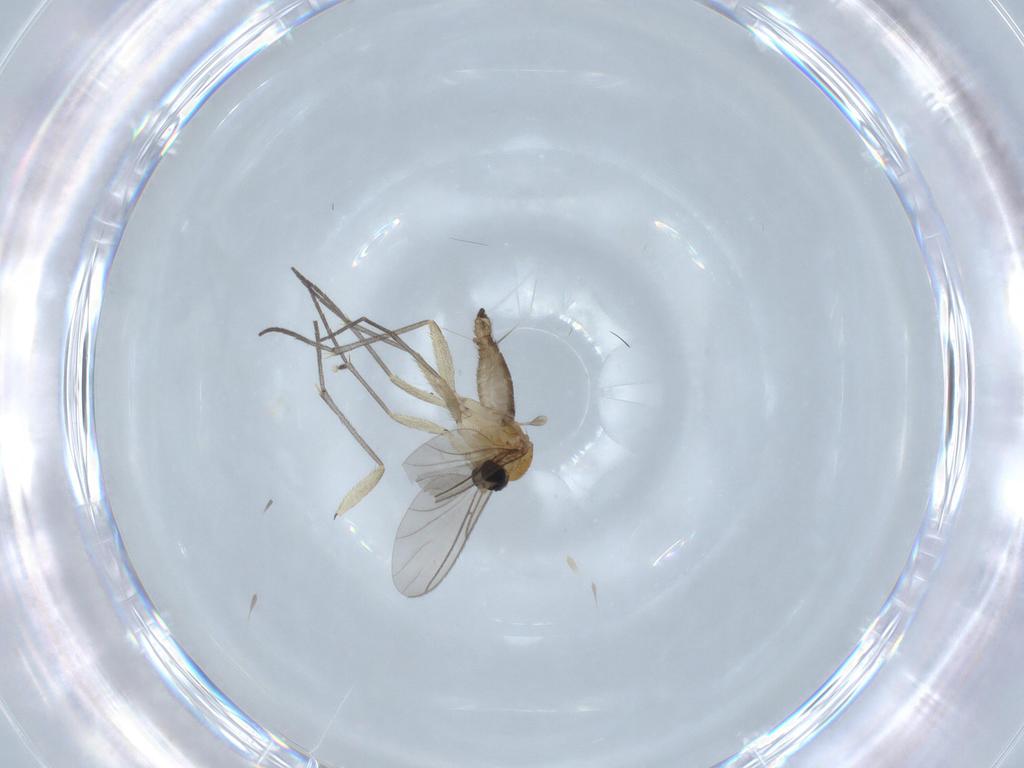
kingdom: Animalia
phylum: Arthropoda
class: Insecta
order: Diptera
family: Sciaridae
